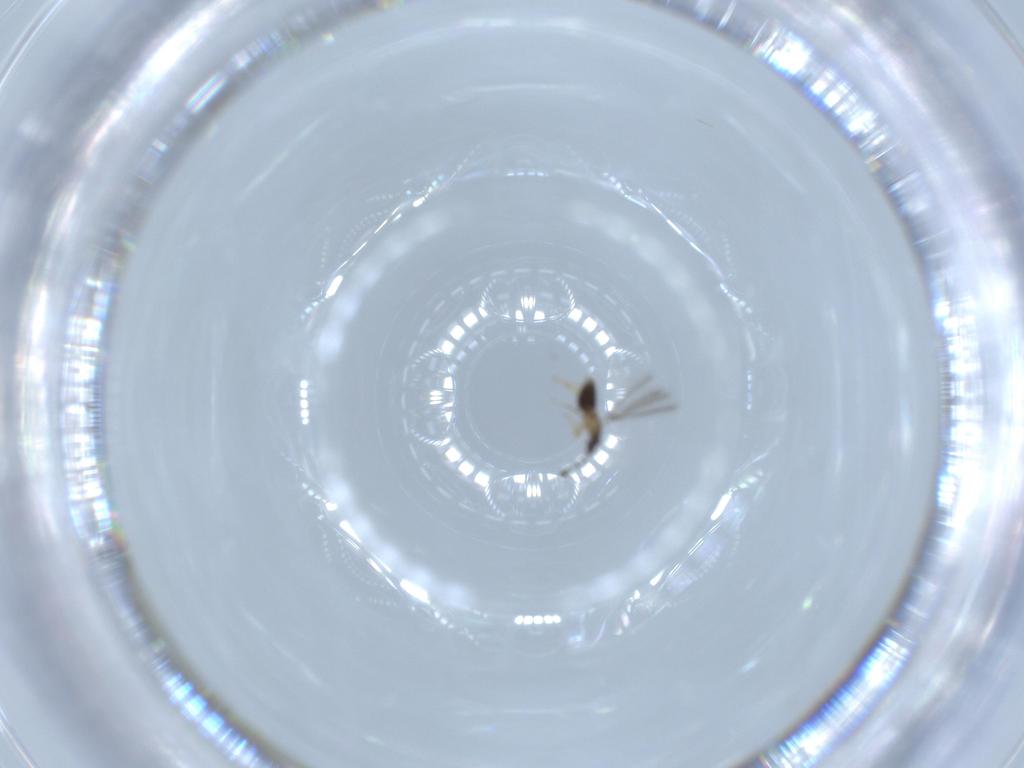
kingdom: Animalia
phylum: Arthropoda
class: Insecta
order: Hymenoptera
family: Mymaridae
